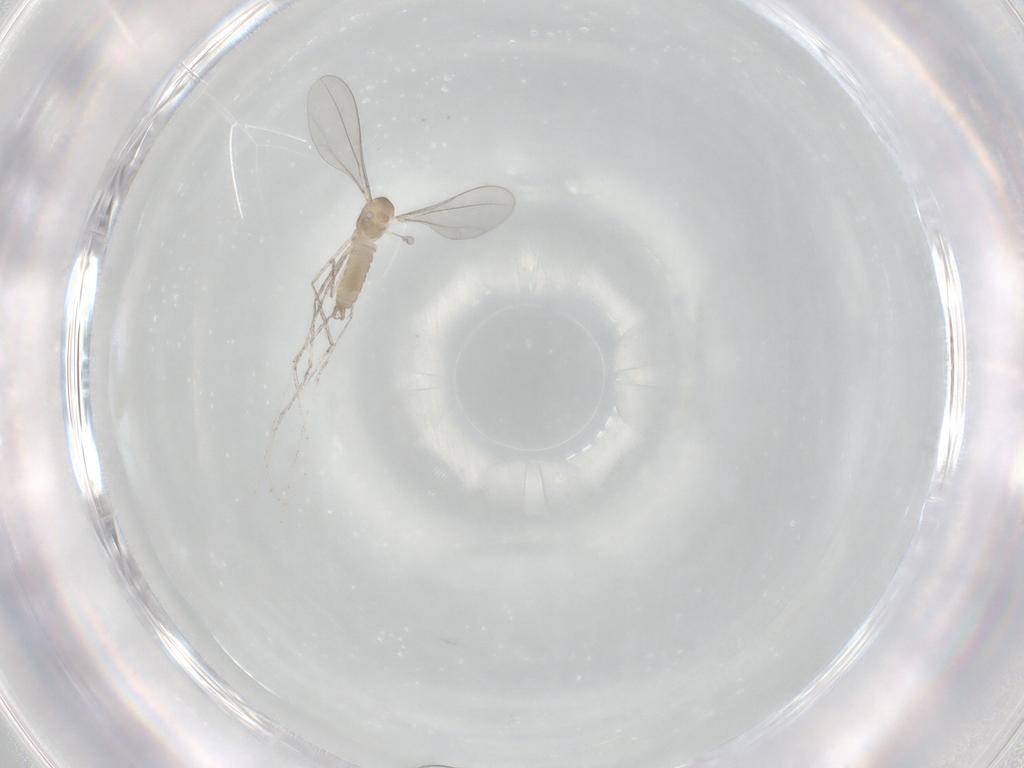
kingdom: Animalia
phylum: Arthropoda
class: Insecta
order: Diptera
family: Cecidomyiidae
